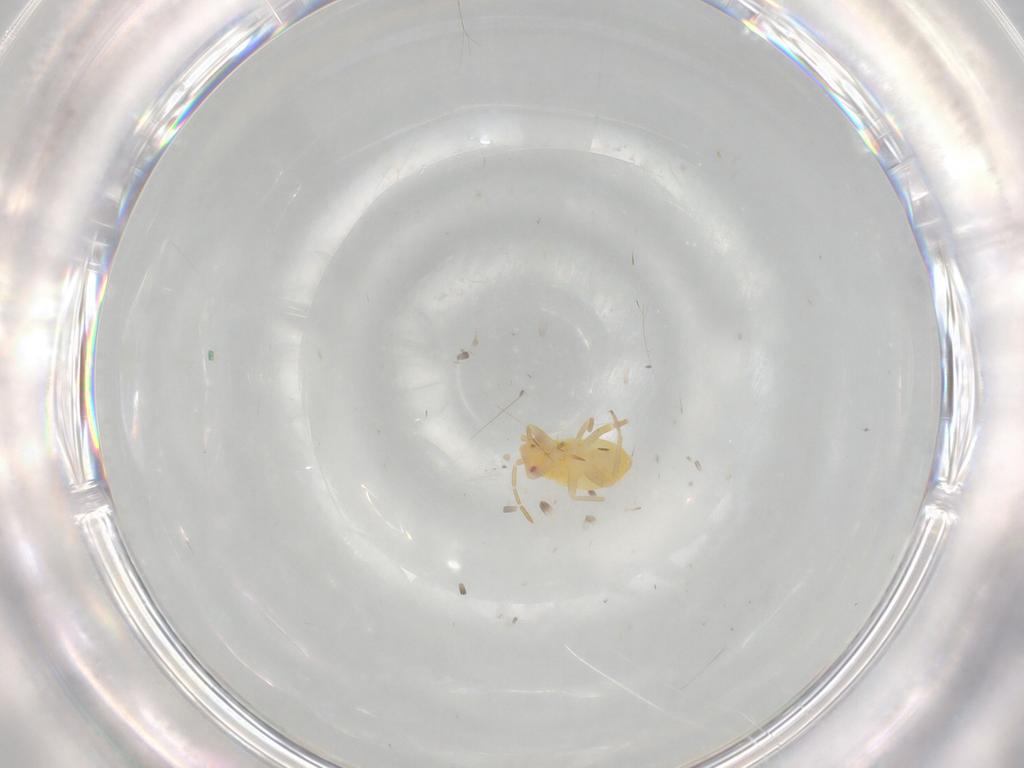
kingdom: Animalia
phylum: Arthropoda
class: Insecta
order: Hemiptera
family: Miridae
